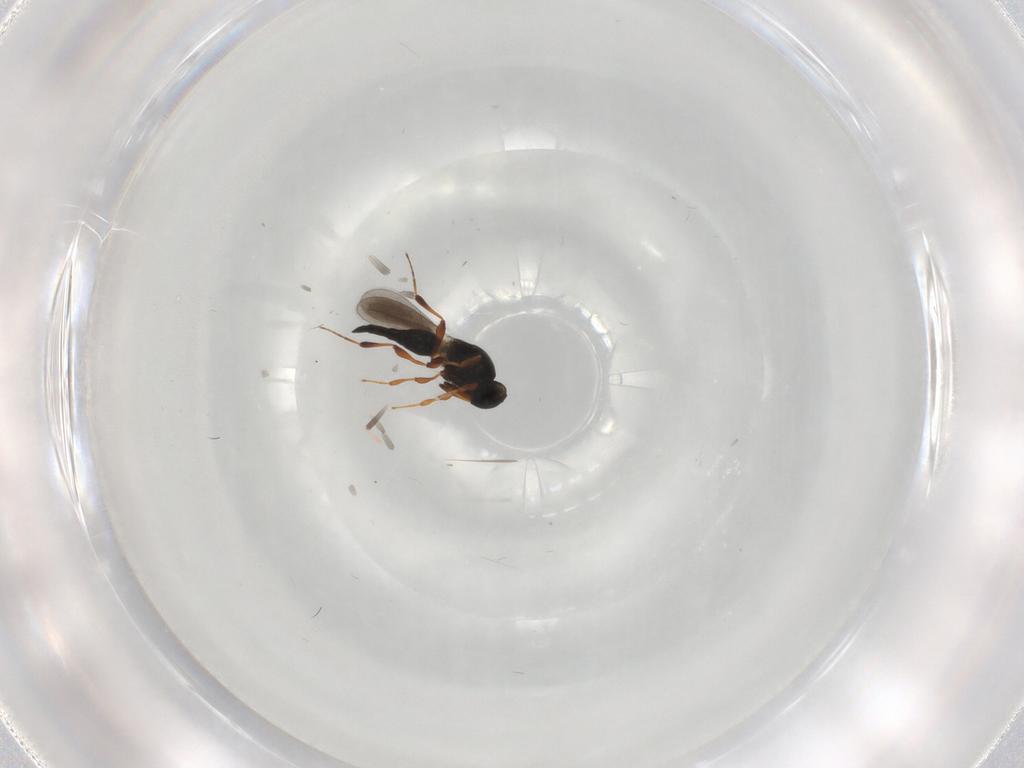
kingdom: Animalia
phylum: Arthropoda
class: Insecta
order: Hymenoptera
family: Platygastridae
